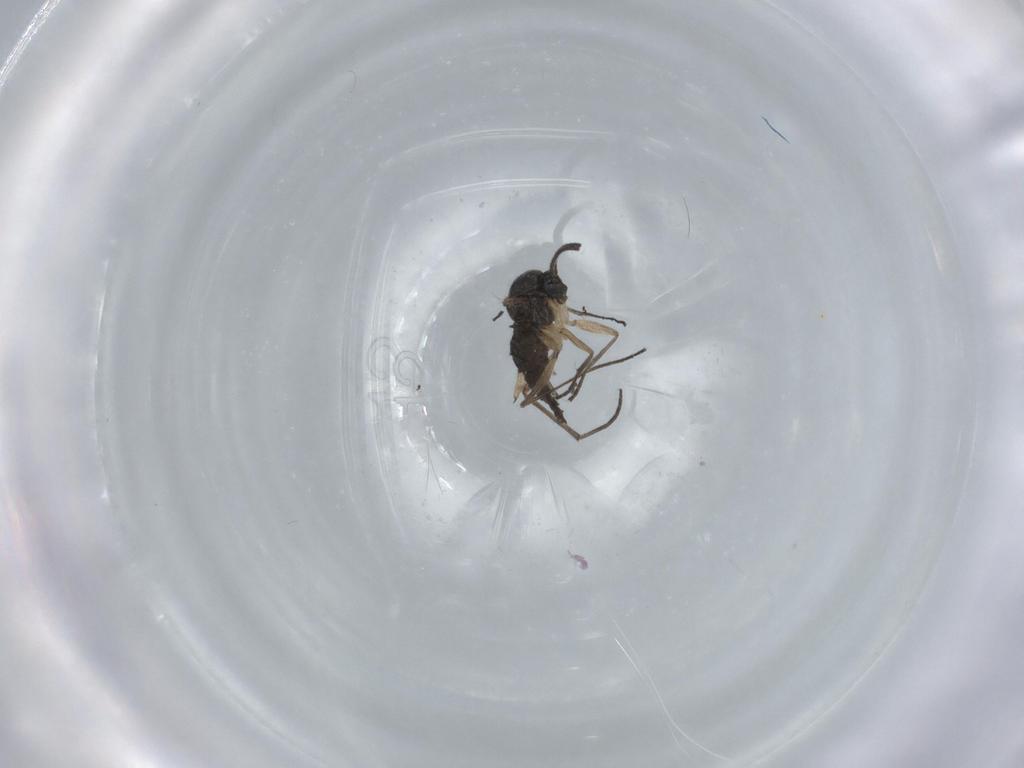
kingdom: Animalia
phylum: Arthropoda
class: Insecta
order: Diptera
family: Sciaridae
